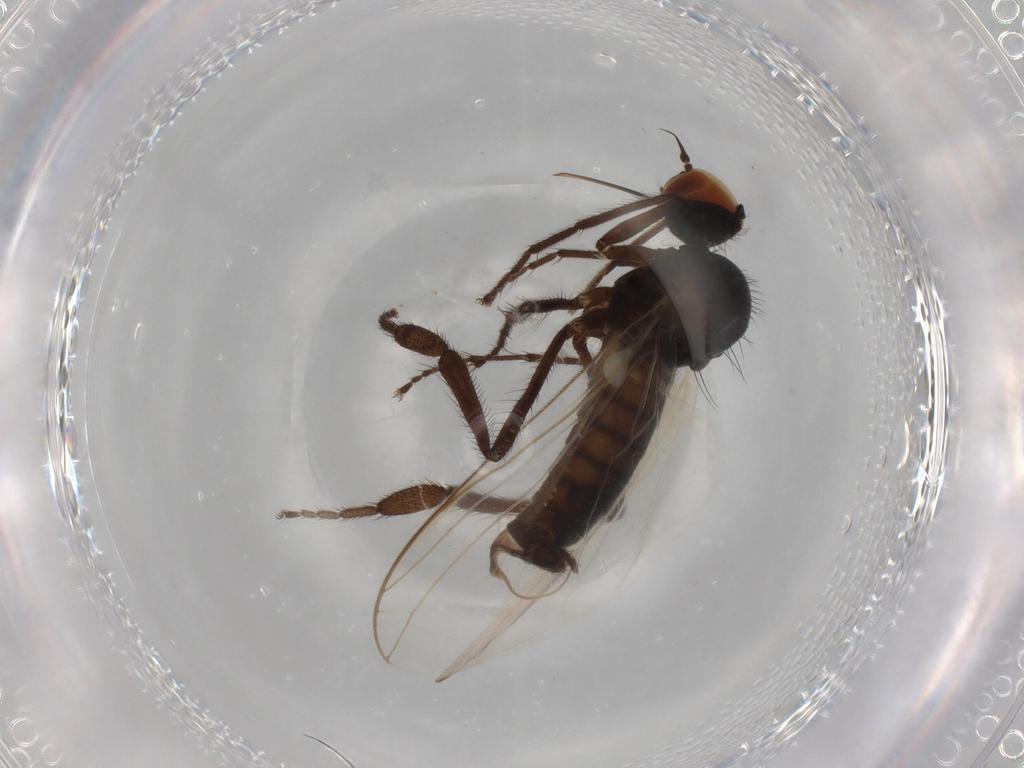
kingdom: Animalia
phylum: Arthropoda
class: Insecta
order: Diptera
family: Empididae
